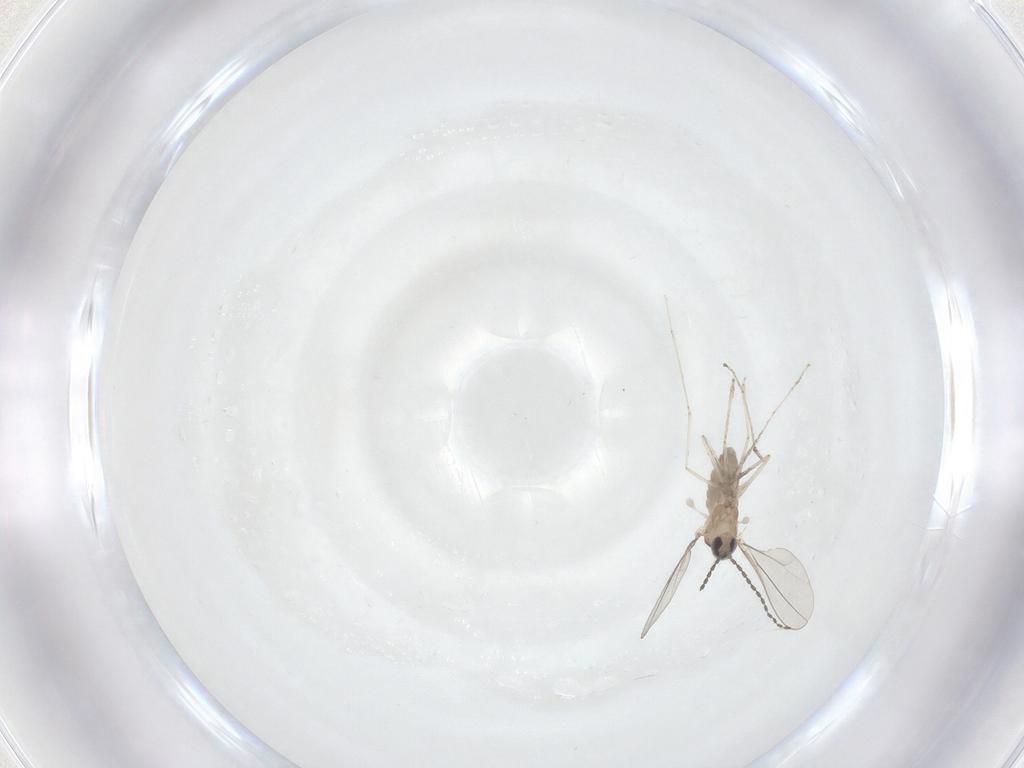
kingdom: Animalia
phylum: Arthropoda
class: Insecta
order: Diptera
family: Cecidomyiidae
